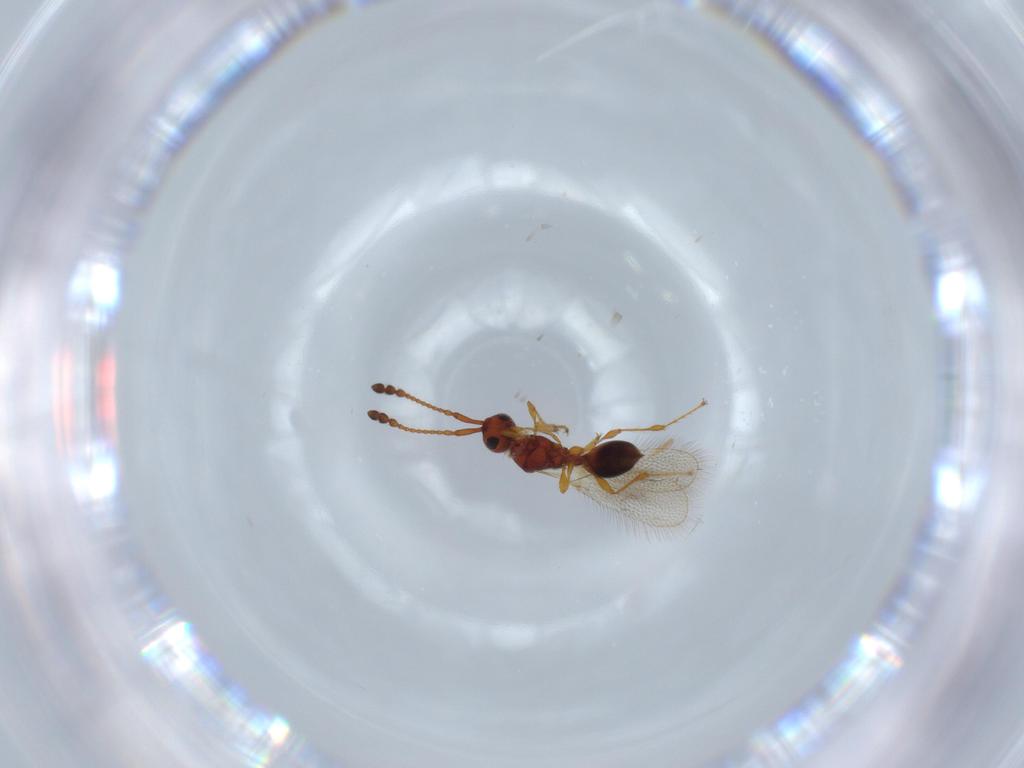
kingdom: Animalia
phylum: Arthropoda
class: Insecta
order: Hymenoptera
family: Diapriidae
